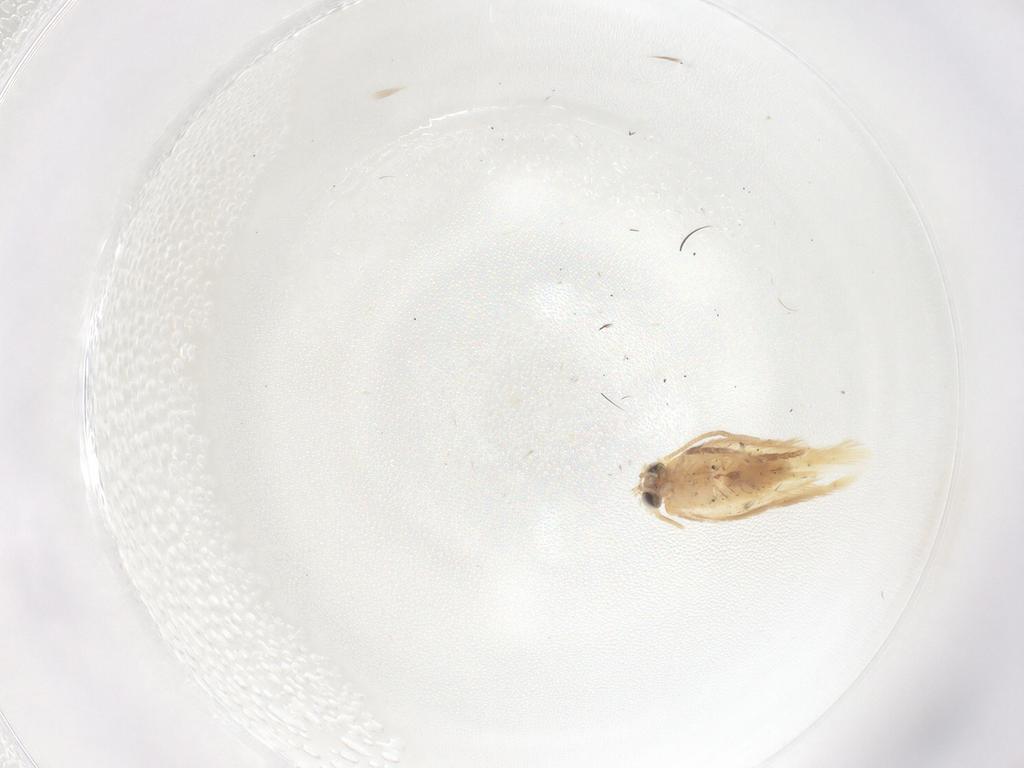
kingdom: Animalia
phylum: Arthropoda
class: Insecta
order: Lepidoptera
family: Nepticulidae
